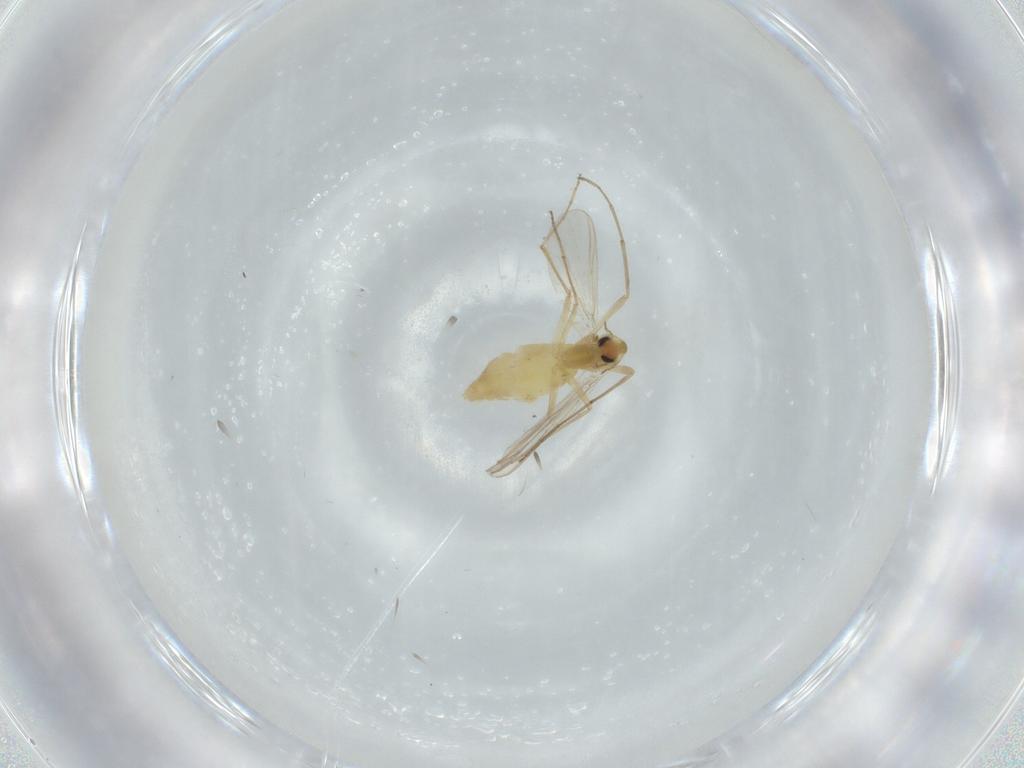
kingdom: Animalia
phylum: Arthropoda
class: Insecta
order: Diptera
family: Chironomidae
